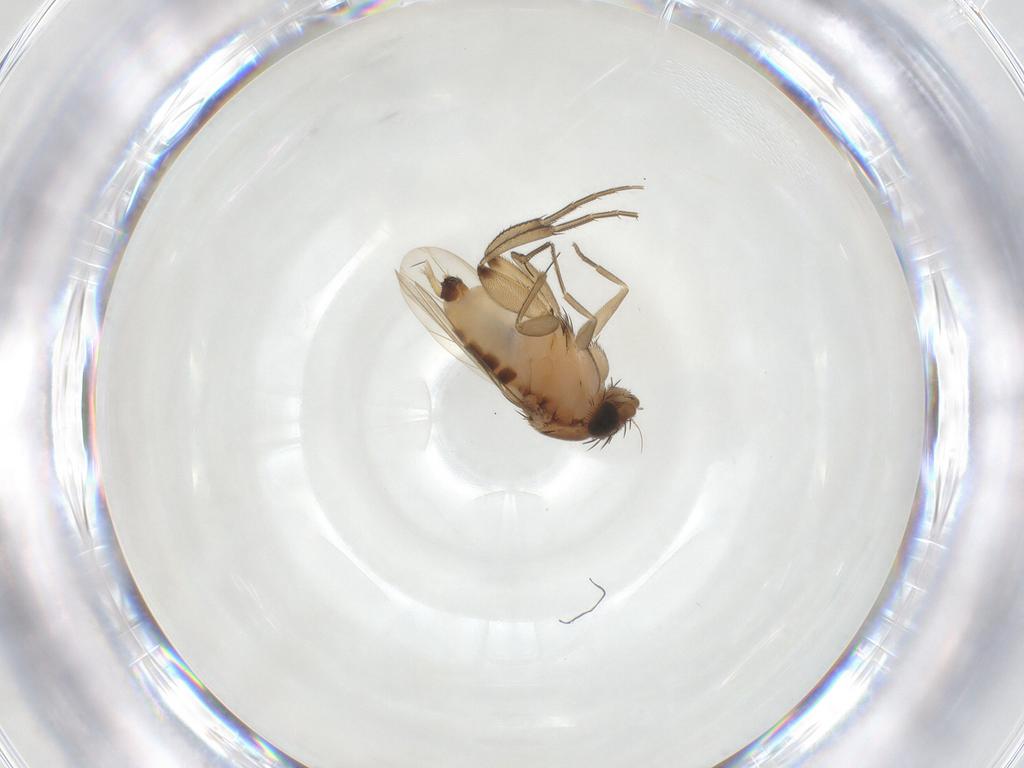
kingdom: Animalia
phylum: Arthropoda
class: Insecta
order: Diptera
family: Phoridae
